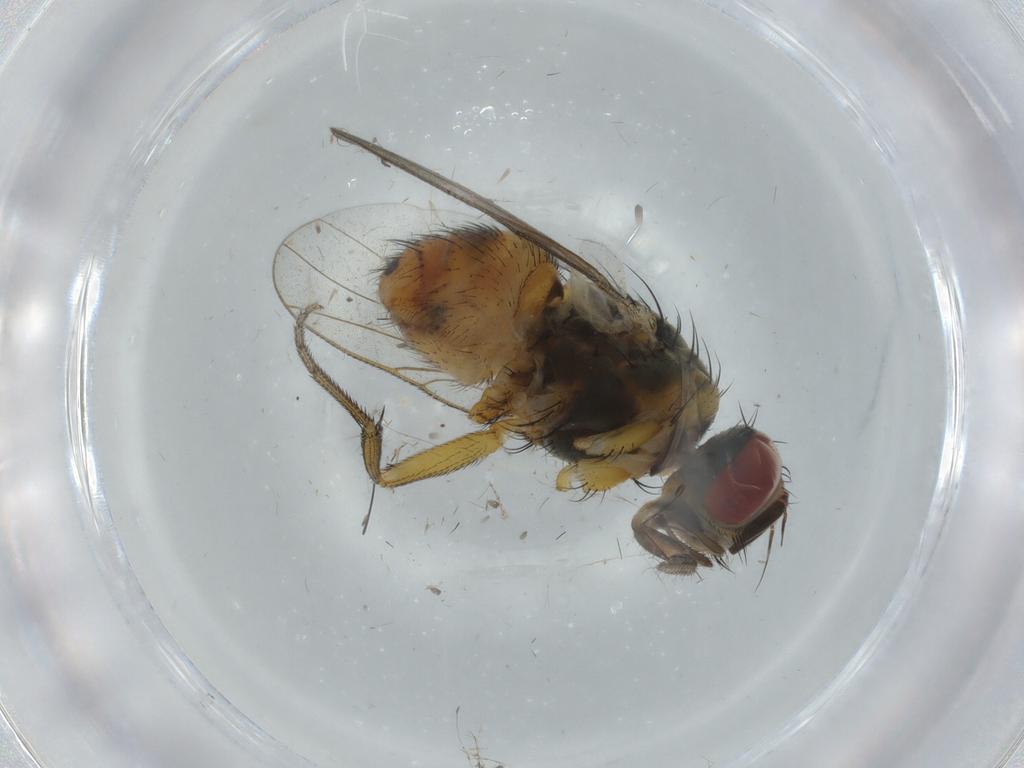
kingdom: Animalia
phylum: Arthropoda
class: Insecta
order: Diptera
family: Muscidae
